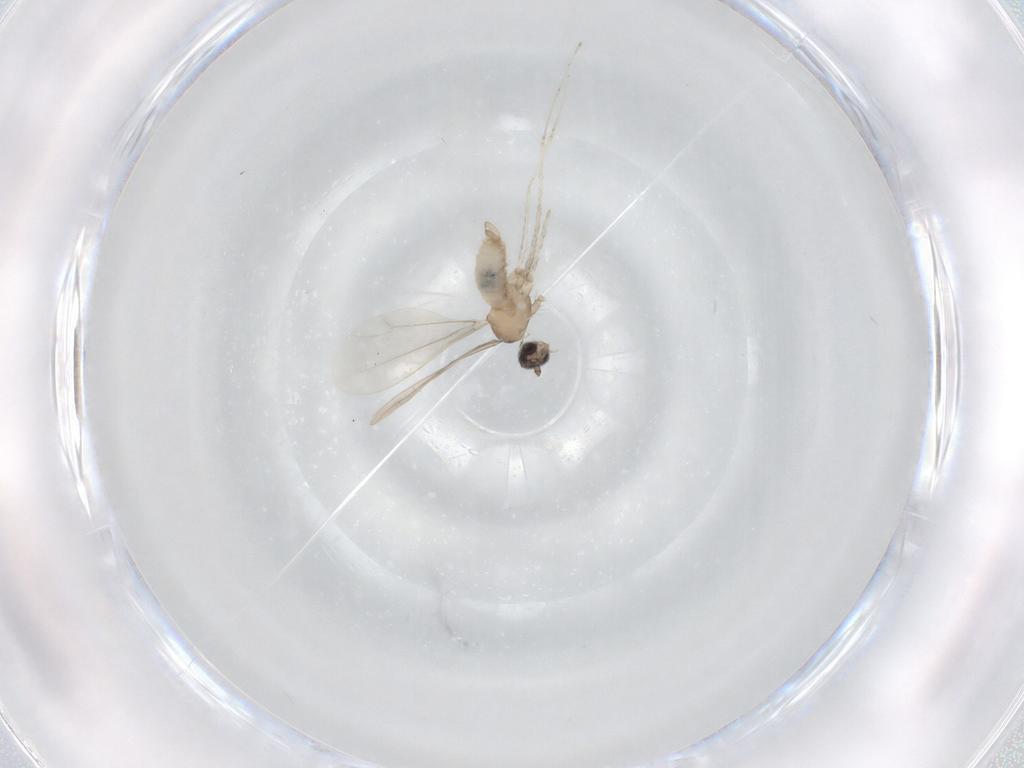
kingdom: Animalia
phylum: Arthropoda
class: Insecta
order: Diptera
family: Chironomidae
